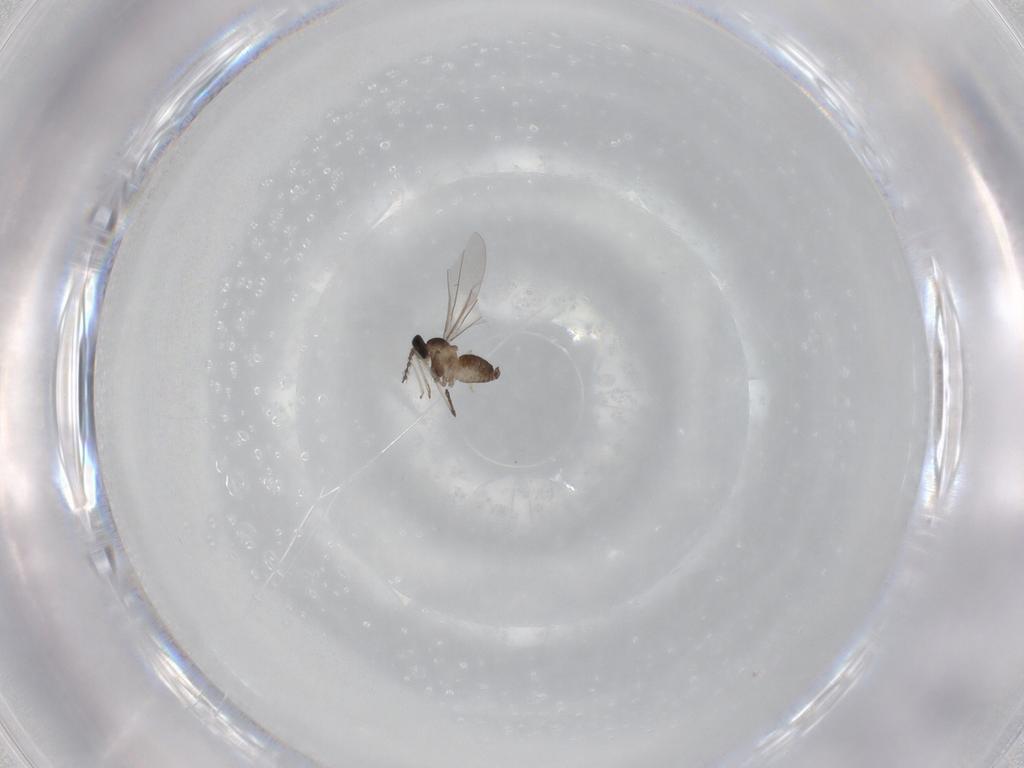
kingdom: Animalia
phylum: Arthropoda
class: Insecta
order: Diptera
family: Cecidomyiidae
